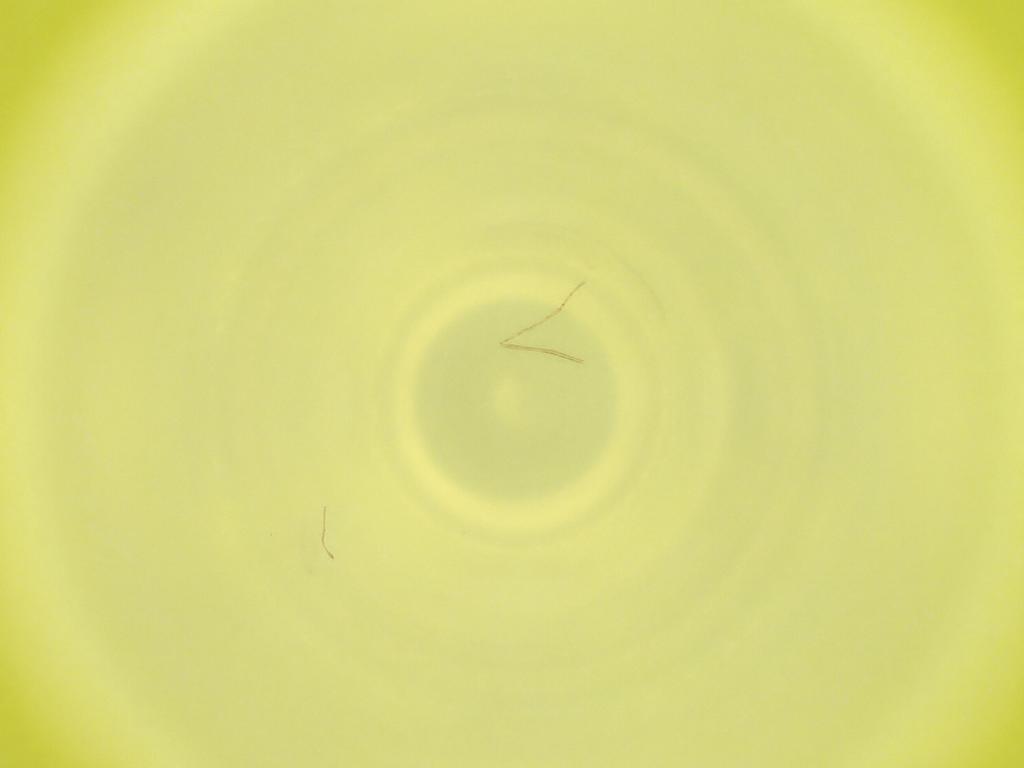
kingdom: Animalia
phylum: Arthropoda
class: Insecta
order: Diptera
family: Cecidomyiidae
